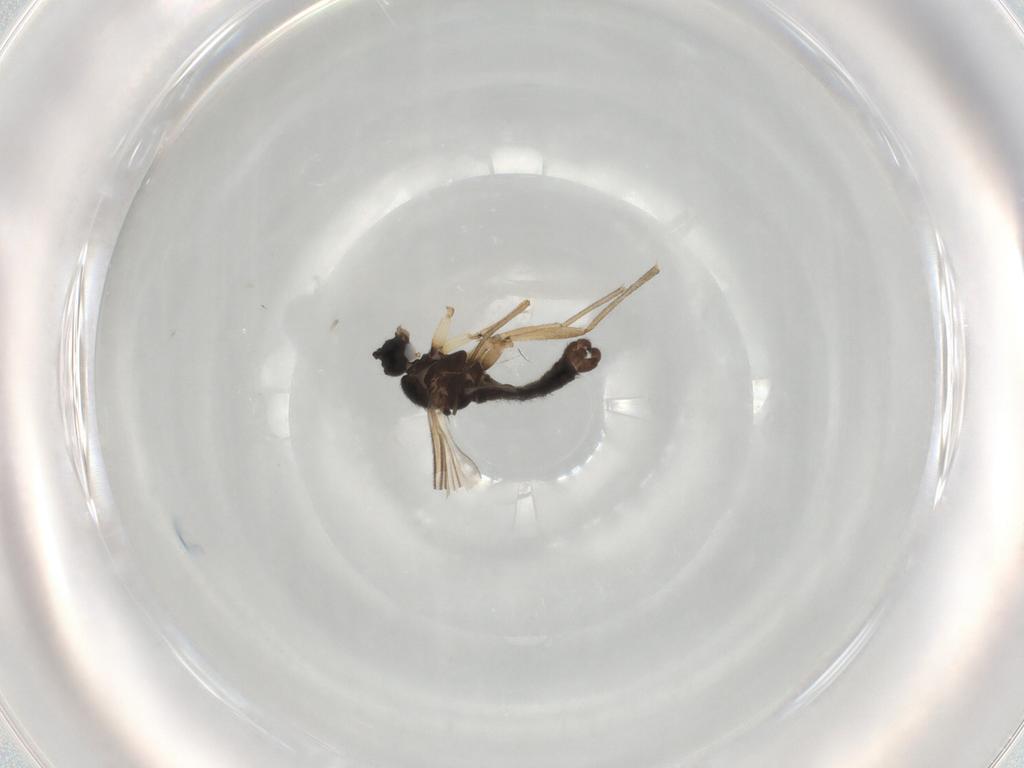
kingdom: Animalia
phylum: Arthropoda
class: Insecta
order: Diptera
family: Sciaridae
